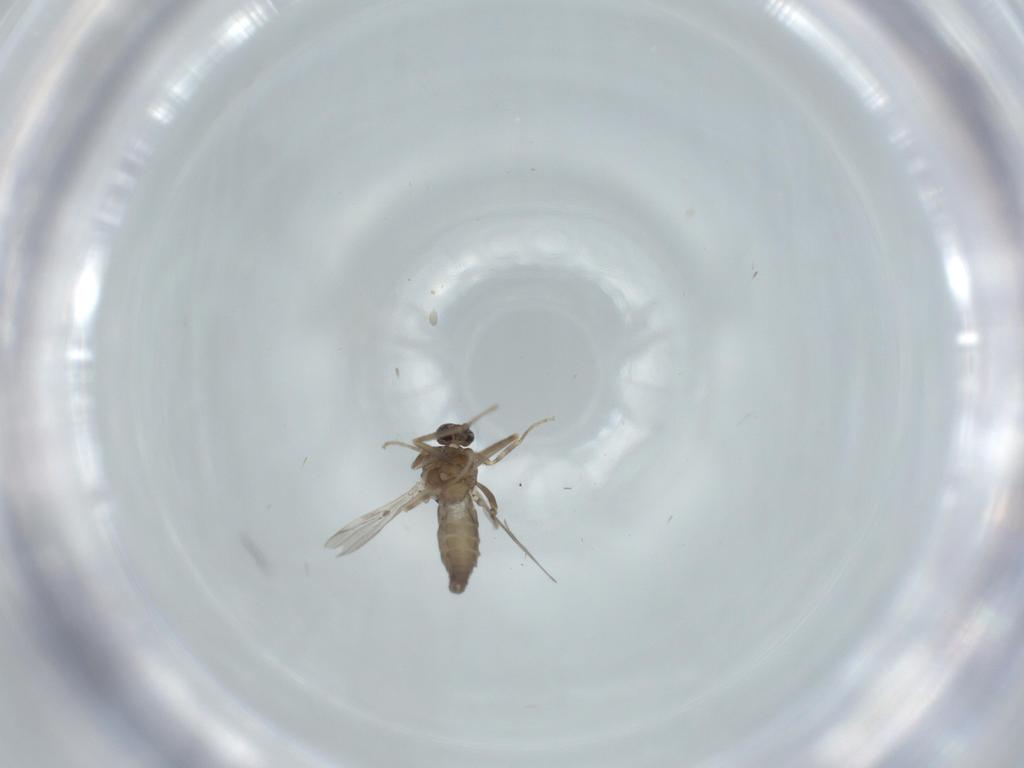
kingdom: Animalia
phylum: Arthropoda
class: Insecta
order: Diptera
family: Ceratopogonidae
